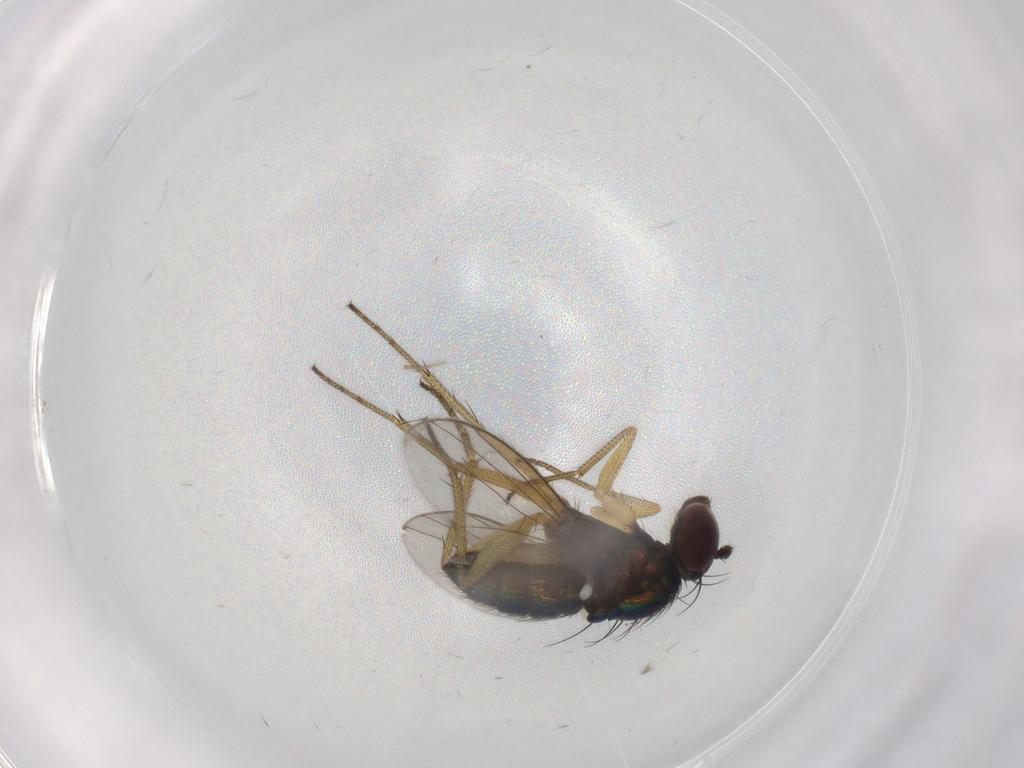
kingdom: Animalia
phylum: Arthropoda
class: Insecta
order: Diptera
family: Dolichopodidae
